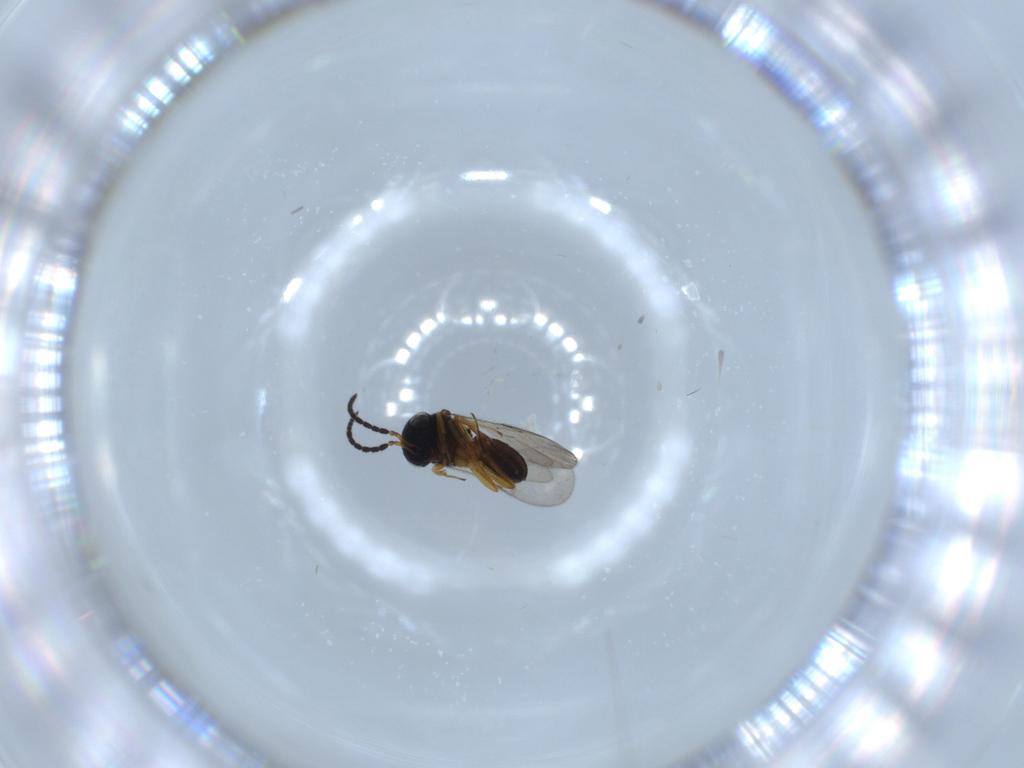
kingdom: Animalia
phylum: Arthropoda
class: Insecta
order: Hymenoptera
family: Scelionidae
